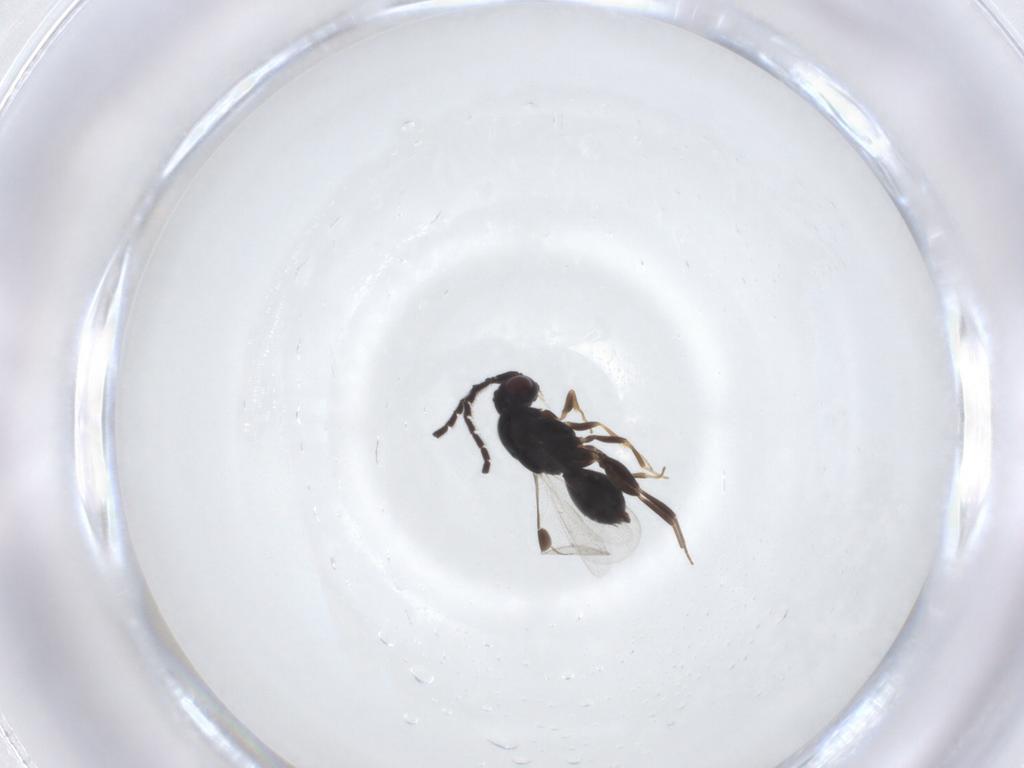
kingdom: Animalia
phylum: Arthropoda
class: Insecta
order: Hymenoptera
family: Megaspilidae
